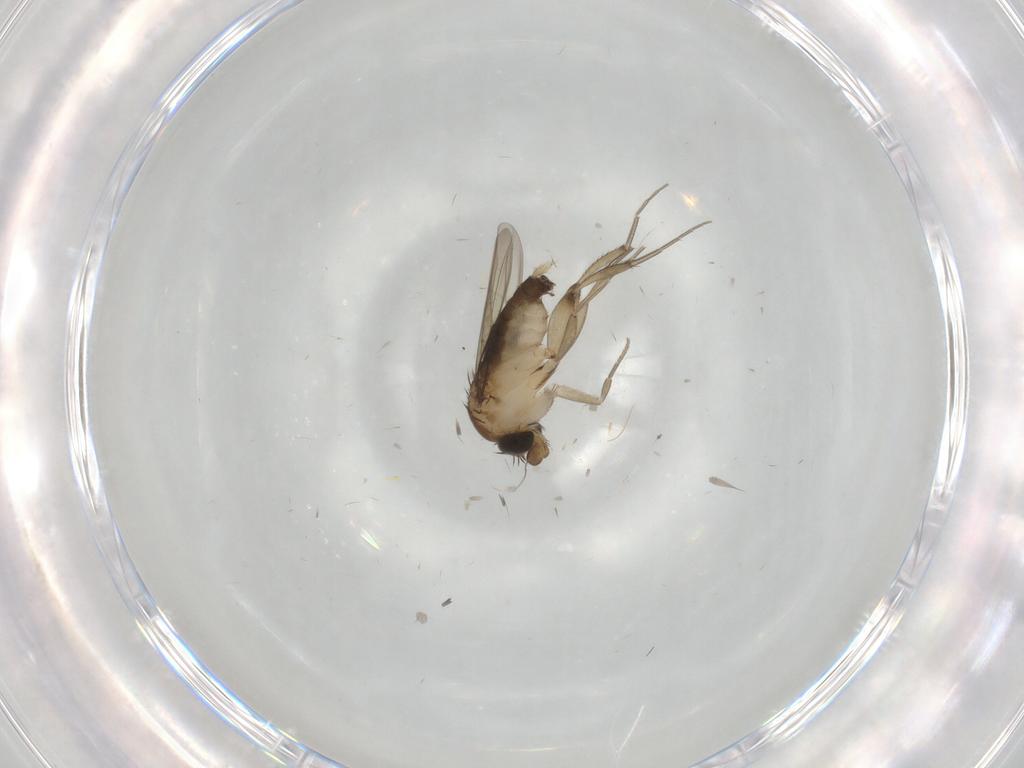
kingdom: Animalia
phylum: Arthropoda
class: Insecta
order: Diptera
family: Phoridae
